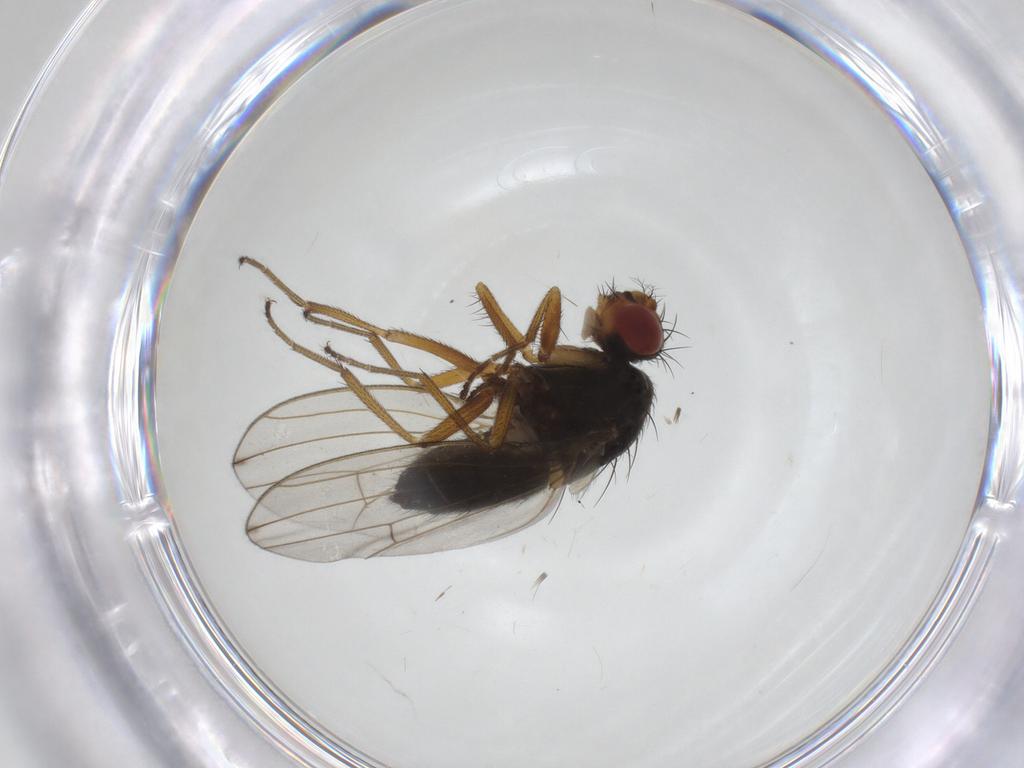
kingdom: Animalia
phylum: Arthropoda
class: Insecta
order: Diptera
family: Drosophilidae
